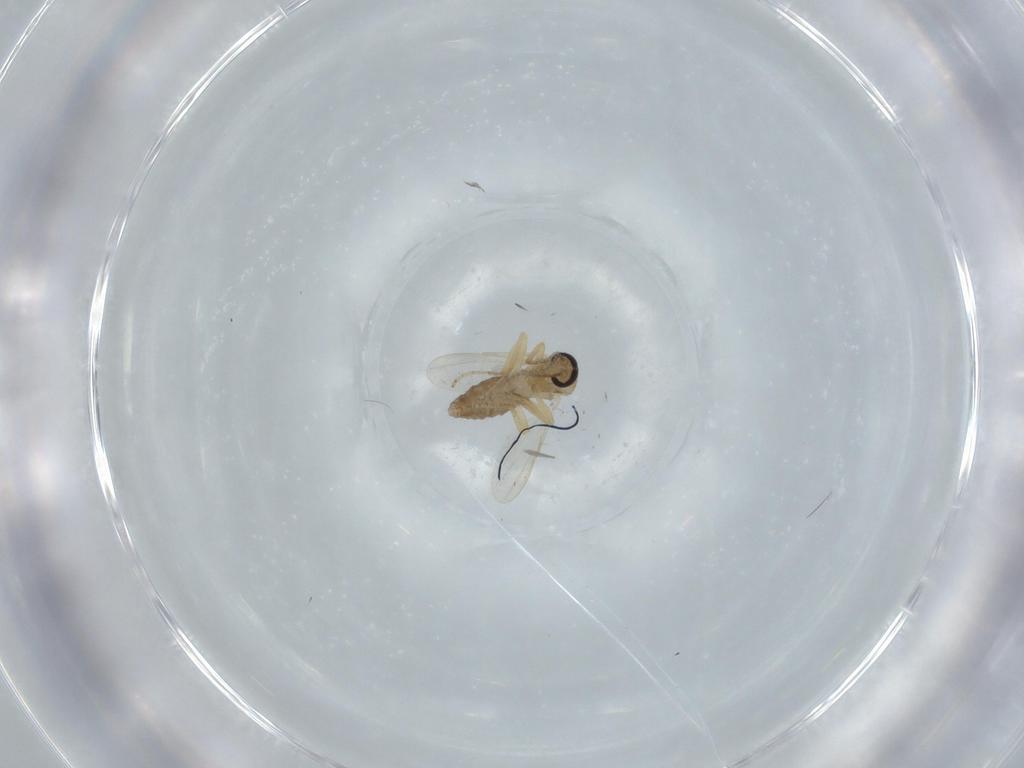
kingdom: Animalia
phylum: Arthropoda
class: Insecta
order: Diptera
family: Ceratopogonidae
